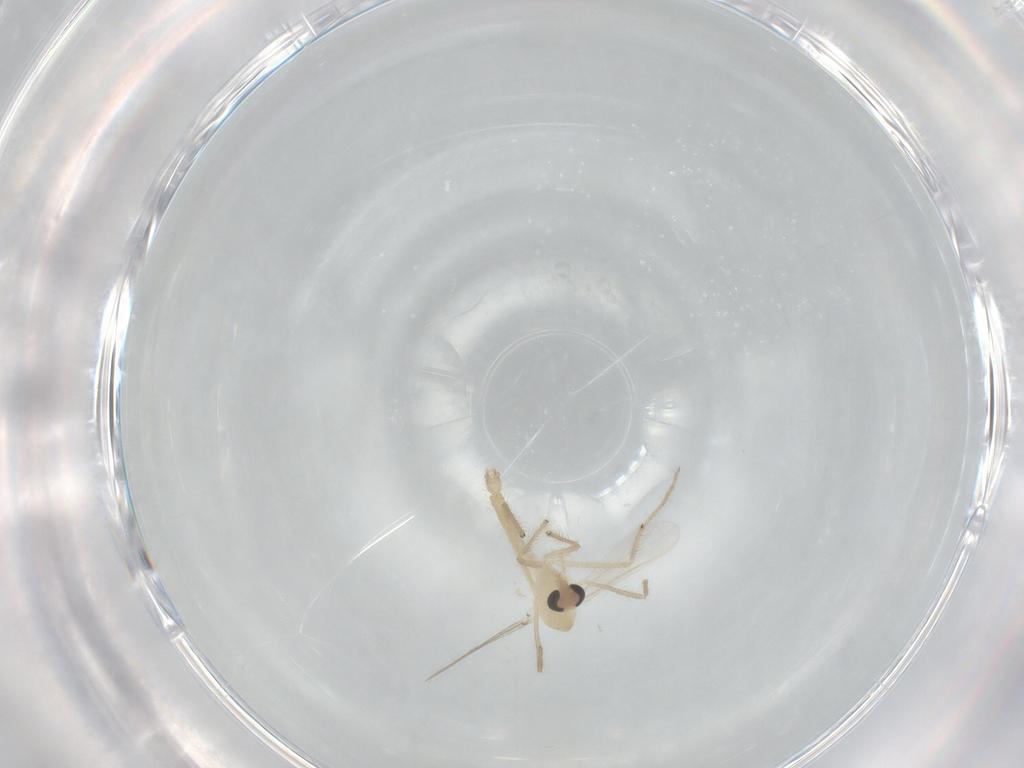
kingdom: Animalia
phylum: Arthropoda
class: Insecta
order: Diptera
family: Chironomidae
